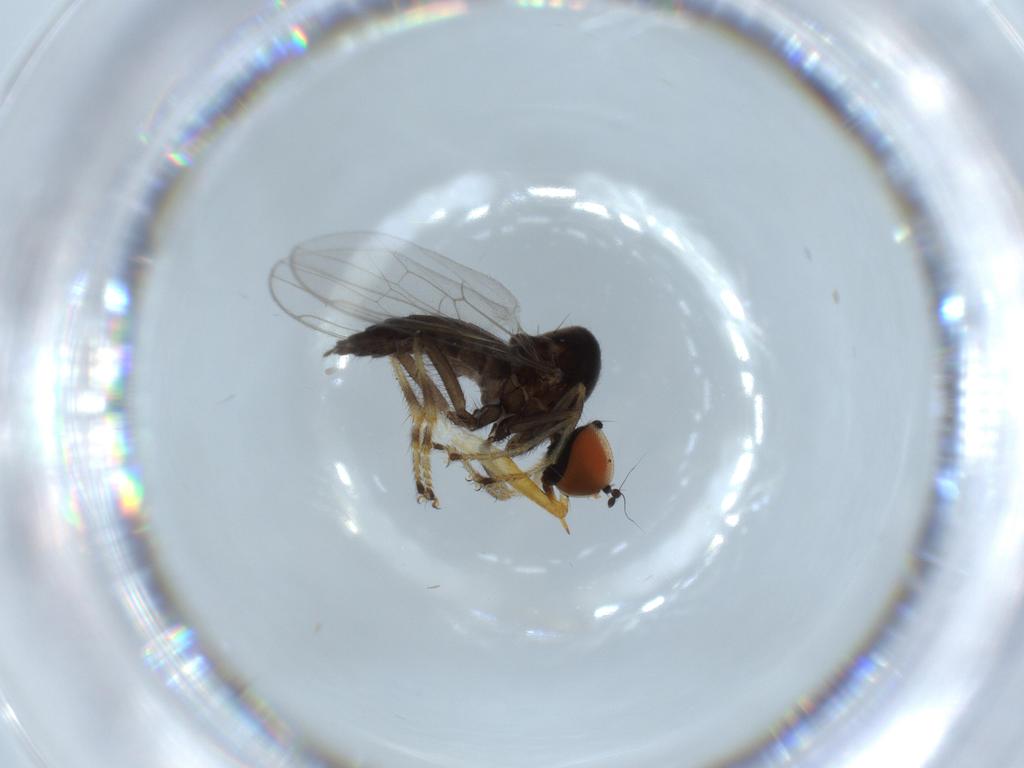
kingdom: Animalia
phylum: Arthropoda
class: Insecta
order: Diptera
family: Hybotidae
